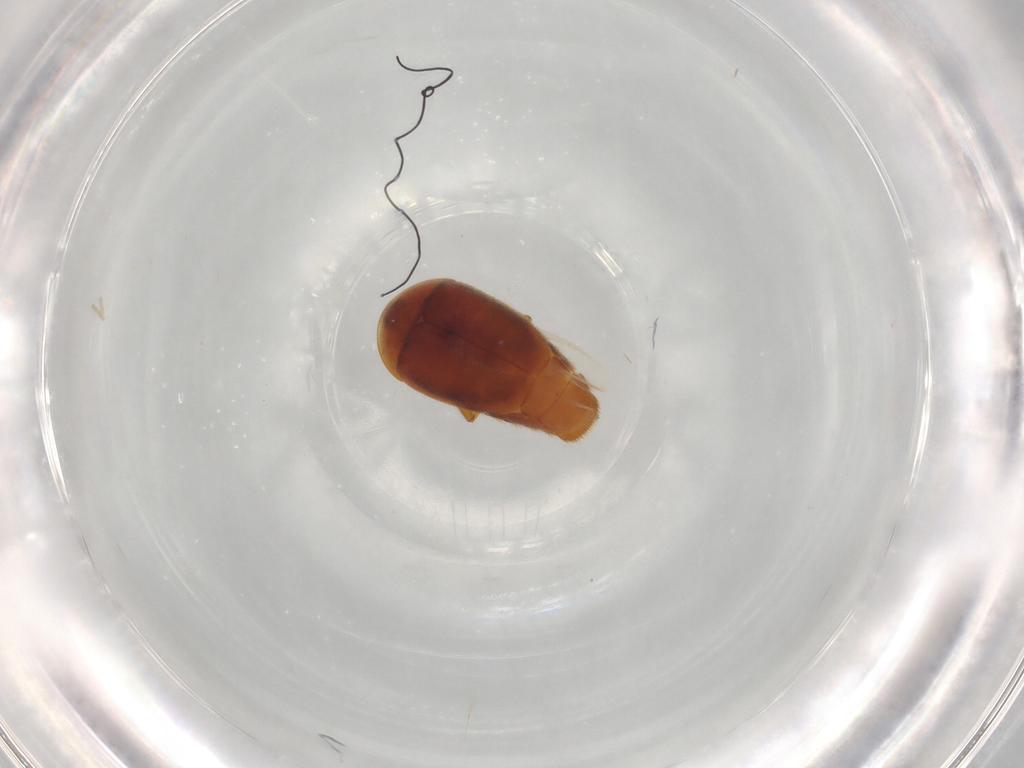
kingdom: Animalia
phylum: Arthropoda
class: Insecta
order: Coleoptera
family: Corylophidae
